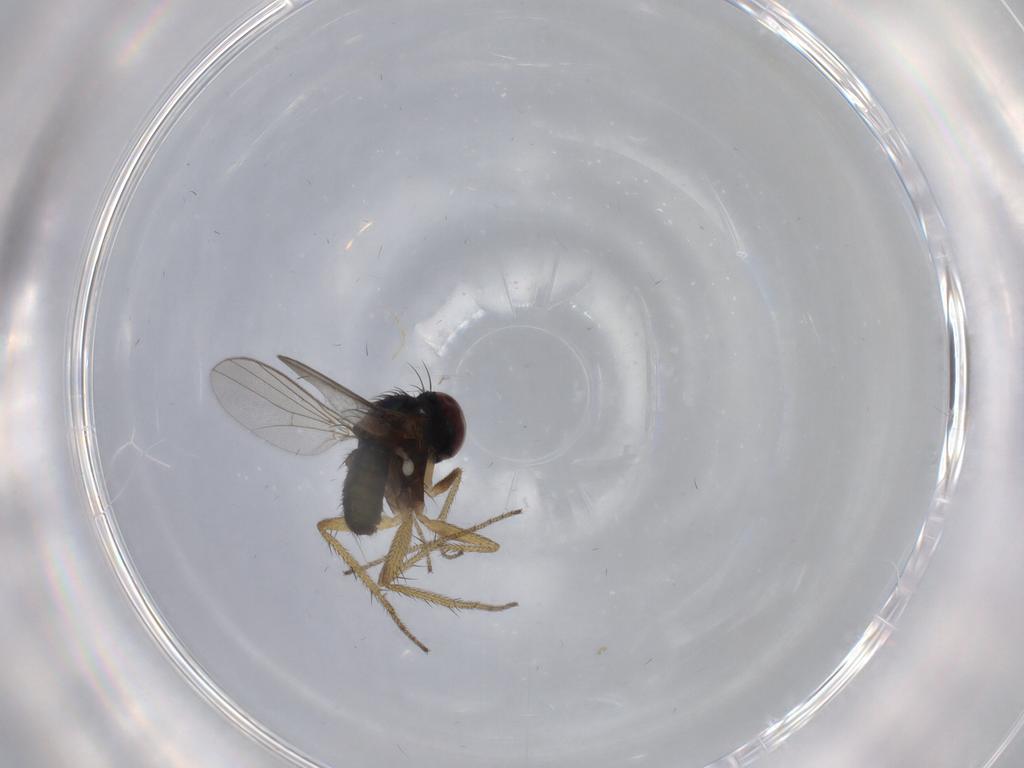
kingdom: Animalia
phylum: Arthropoda
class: Insecta
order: Diptera
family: Dolichopodidae
